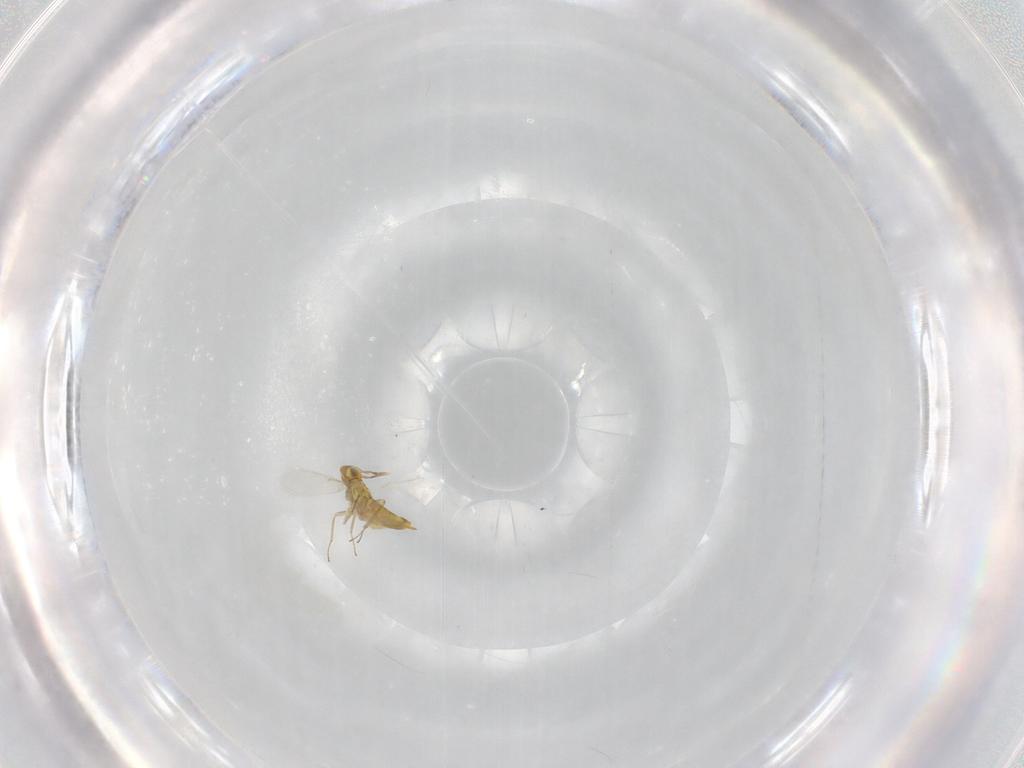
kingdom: Animalia
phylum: Arthropoda
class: Insecta
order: Hymenoptera
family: Aphelinidae
